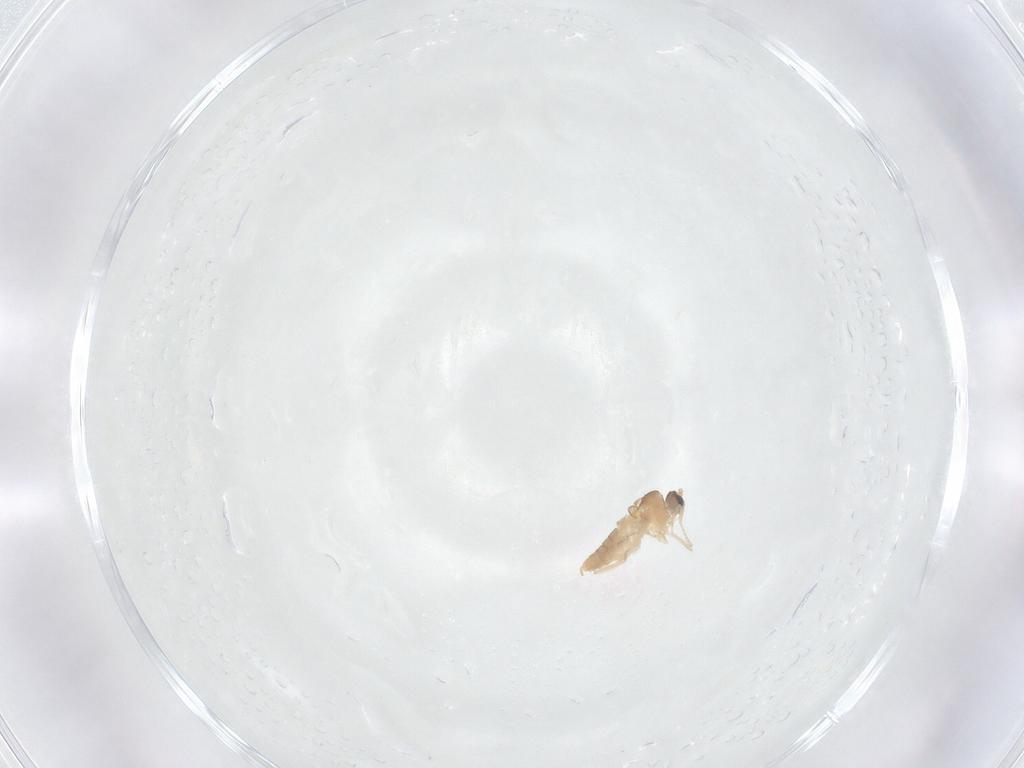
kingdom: Animalia
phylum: Arthropoda
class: Insecta
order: Diptera
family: Cecidomyiidae
